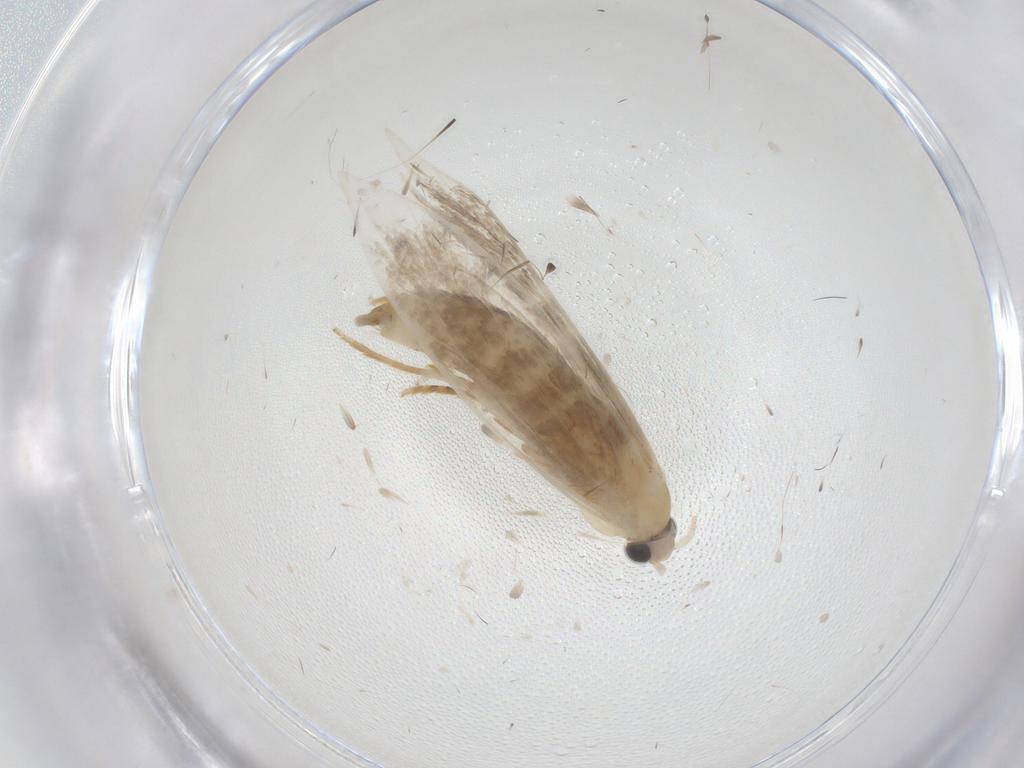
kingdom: Animalia
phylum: Arthropoda
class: Insecta
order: Lepidoptera
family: Tineidae
